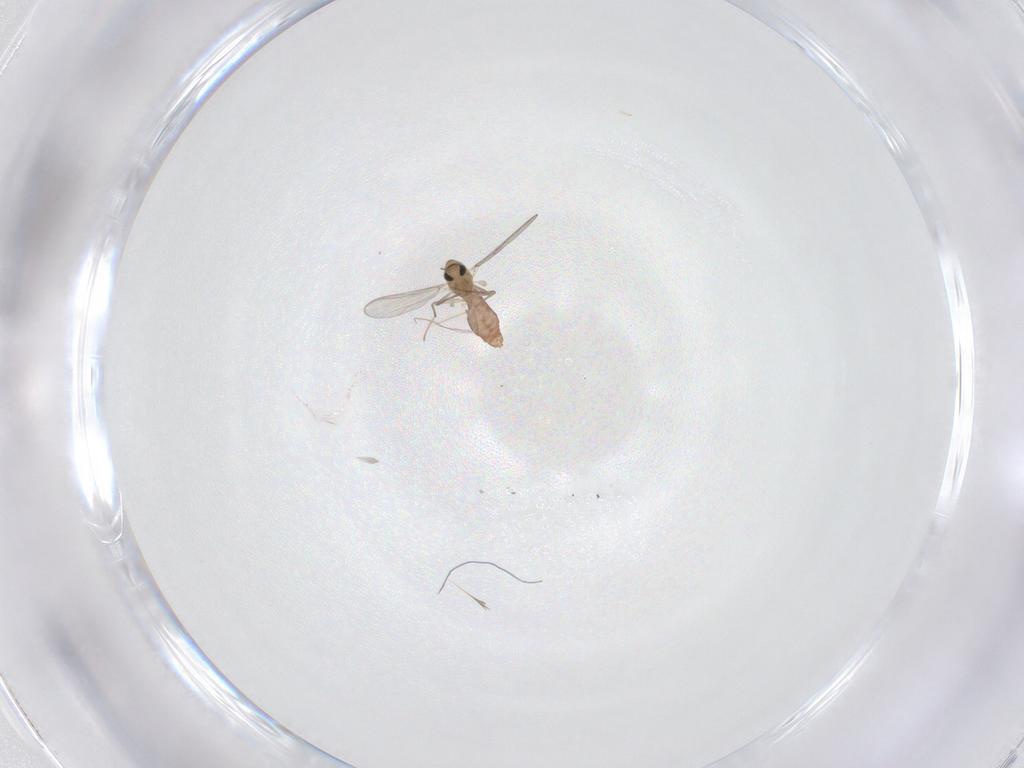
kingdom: Animalia
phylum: Arthropoda
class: Insecta
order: Diptera
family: Chironomidae
